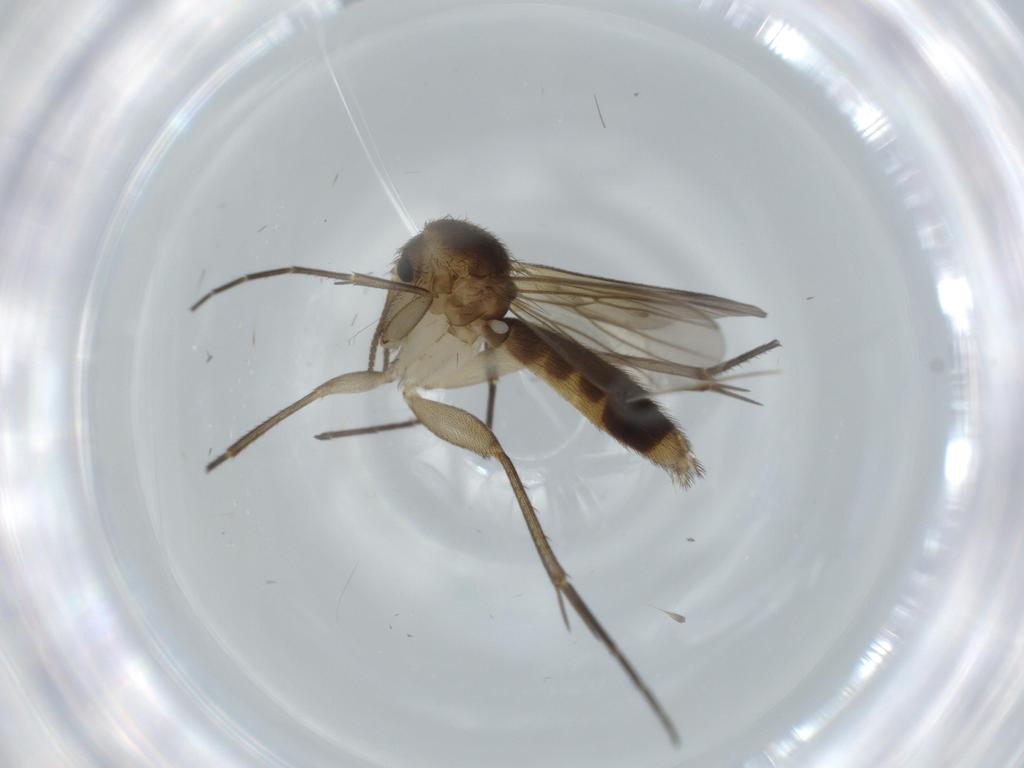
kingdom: Animalia
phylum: Arthropoda
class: Insecta
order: Diptera
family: Mycetophilidae
